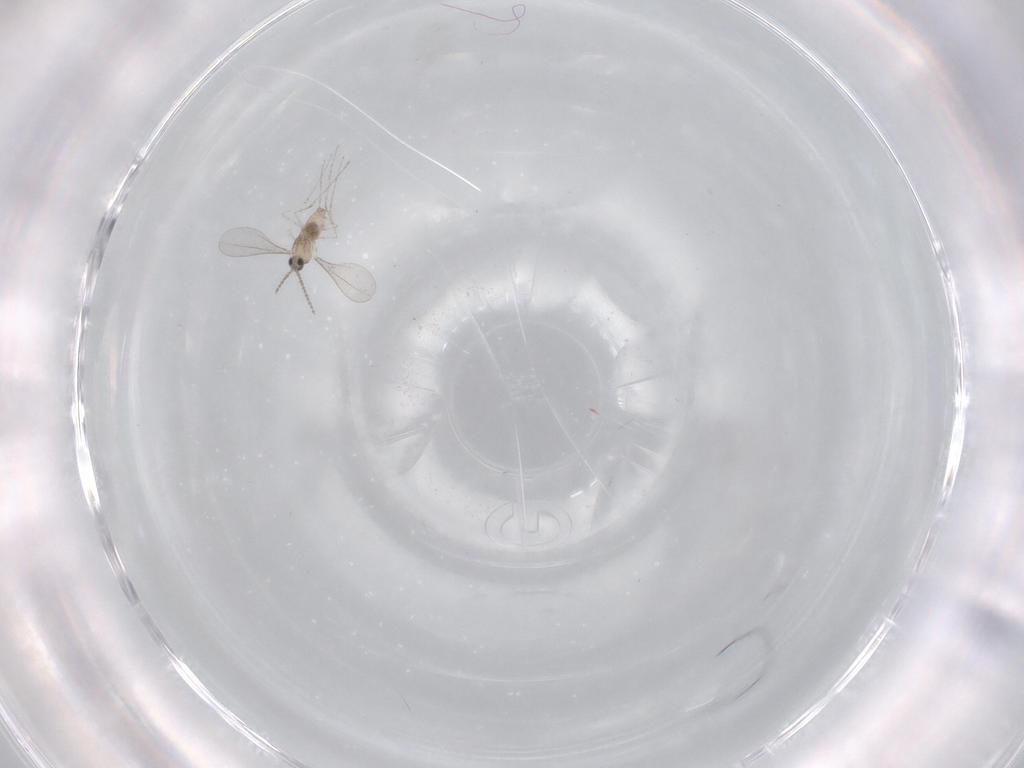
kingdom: Animalia
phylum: Arthropoda
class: Insecta
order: Diptera
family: Cecidomyiidae
